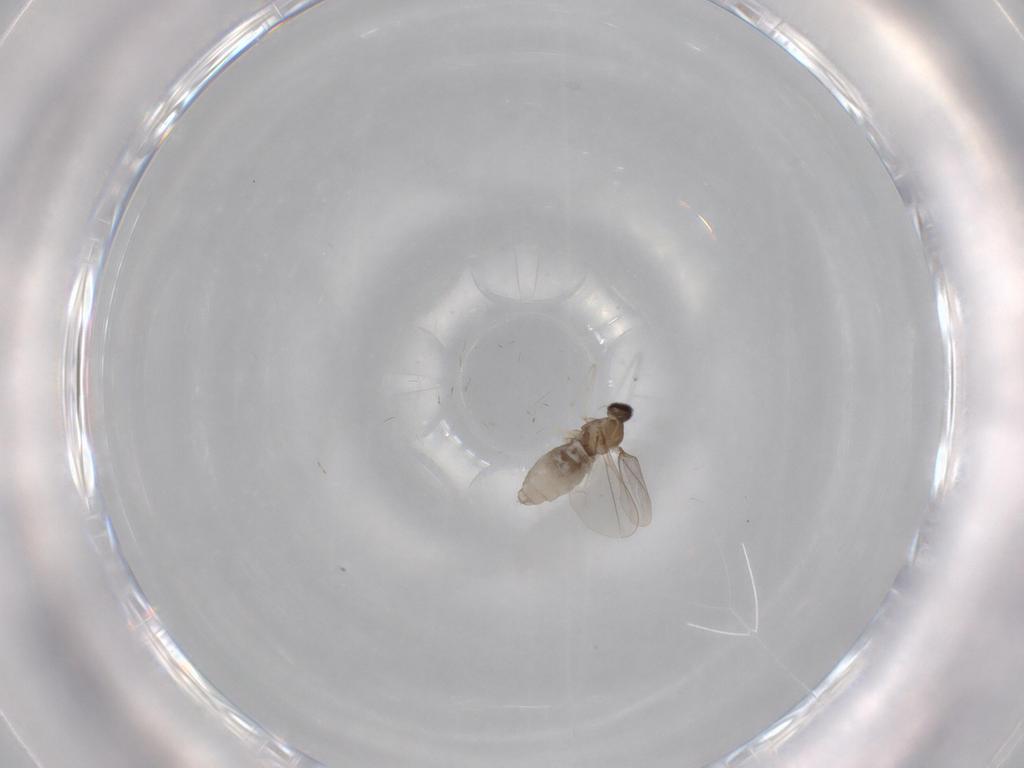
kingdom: Animalia
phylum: Arthropoda
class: Insecta
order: Diptera
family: Cecidomyiidae
